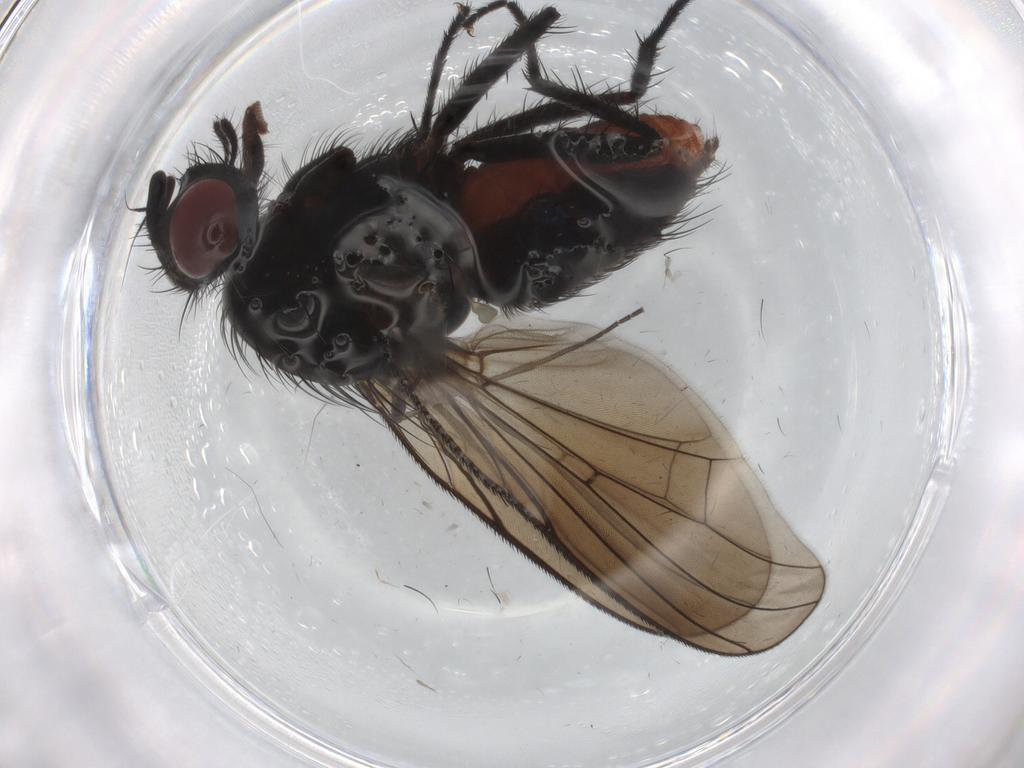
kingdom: Animalia
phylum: Arthropoda
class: Insecta
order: Diptera
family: Anthomyiidae
